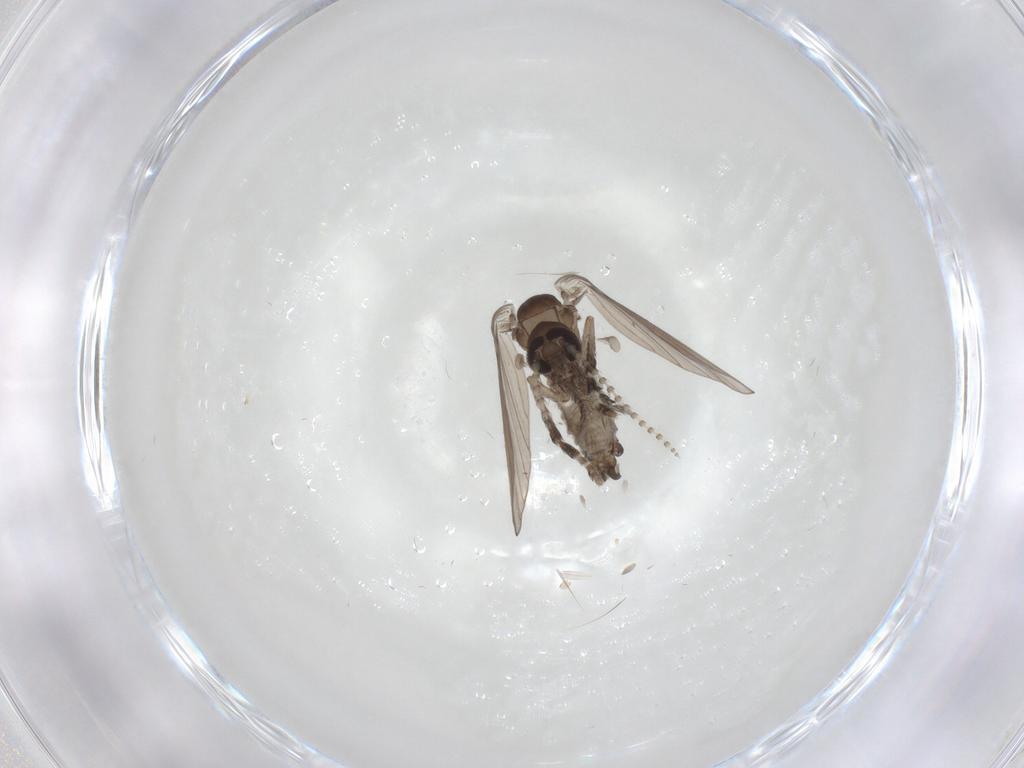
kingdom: Animalia
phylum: Arthropoda
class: Insecta
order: Diptera
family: Psychodidae
